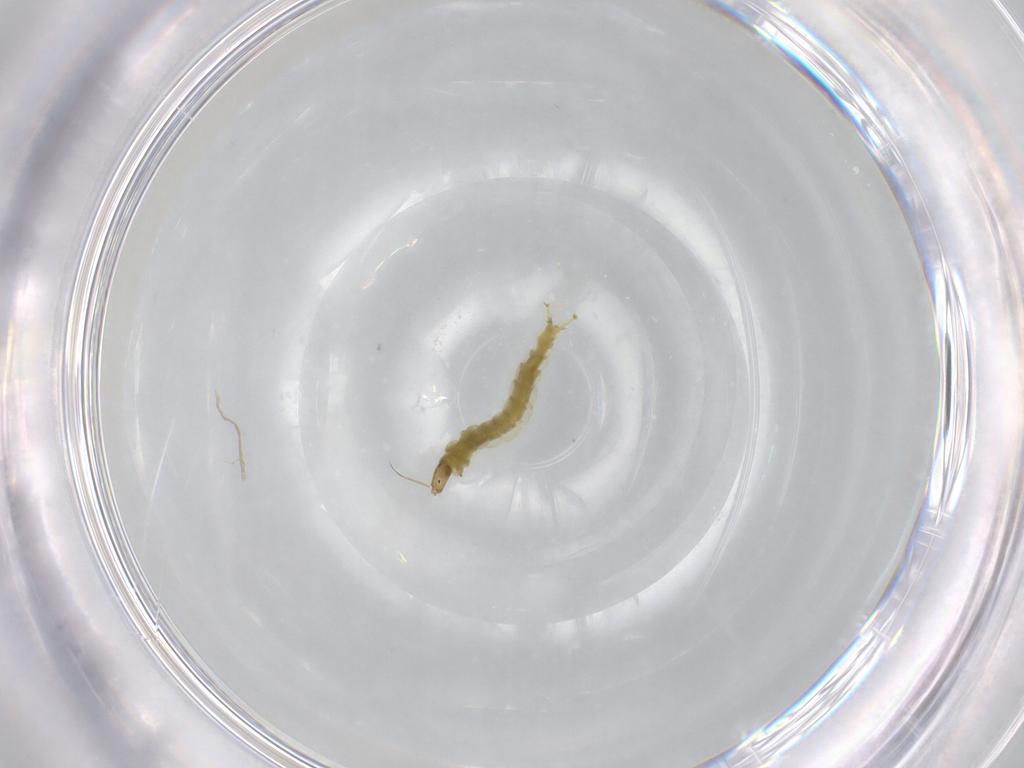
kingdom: Animalia
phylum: Arthropoda
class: Insecta
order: Diptera
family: Chironomidae
